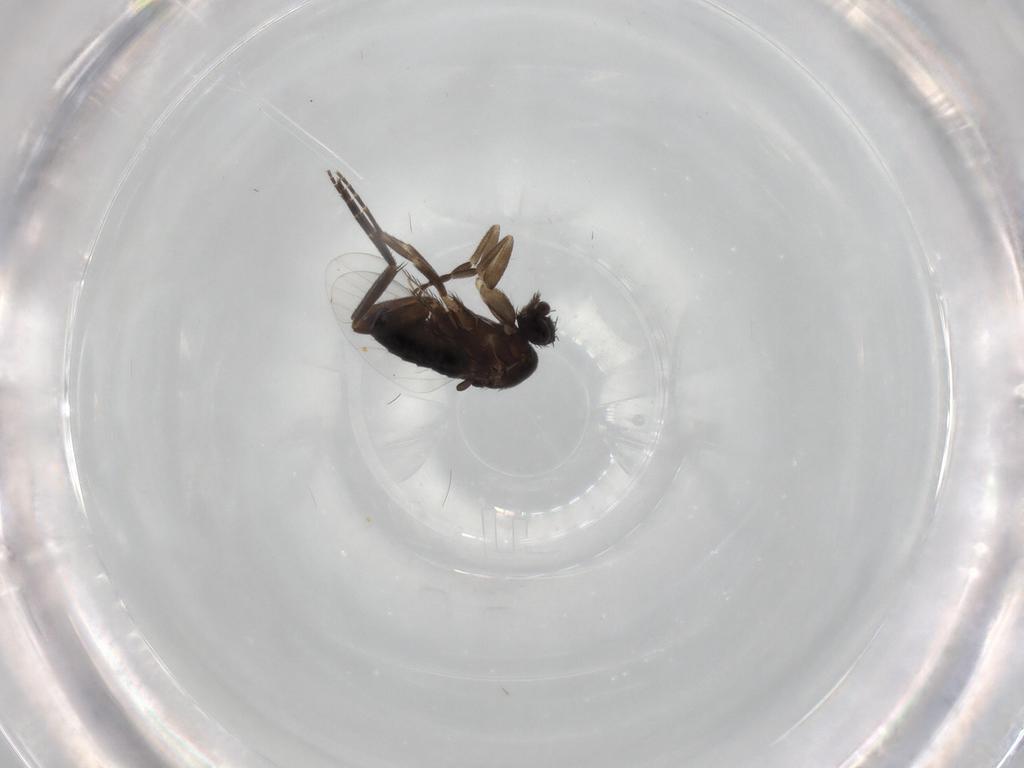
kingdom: Animalia
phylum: Arthropoda
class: Insecta
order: Diptera
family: Phoridae
